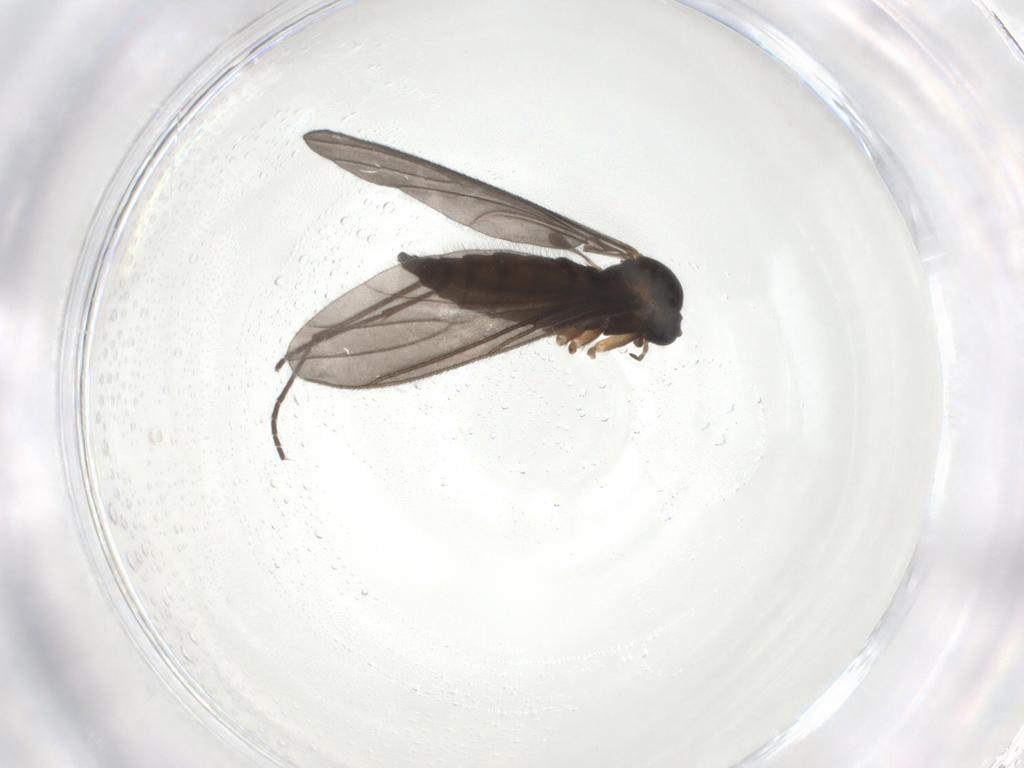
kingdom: Animalia
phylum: Arthropoda
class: Insecta
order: Diptera
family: Sciaridae
